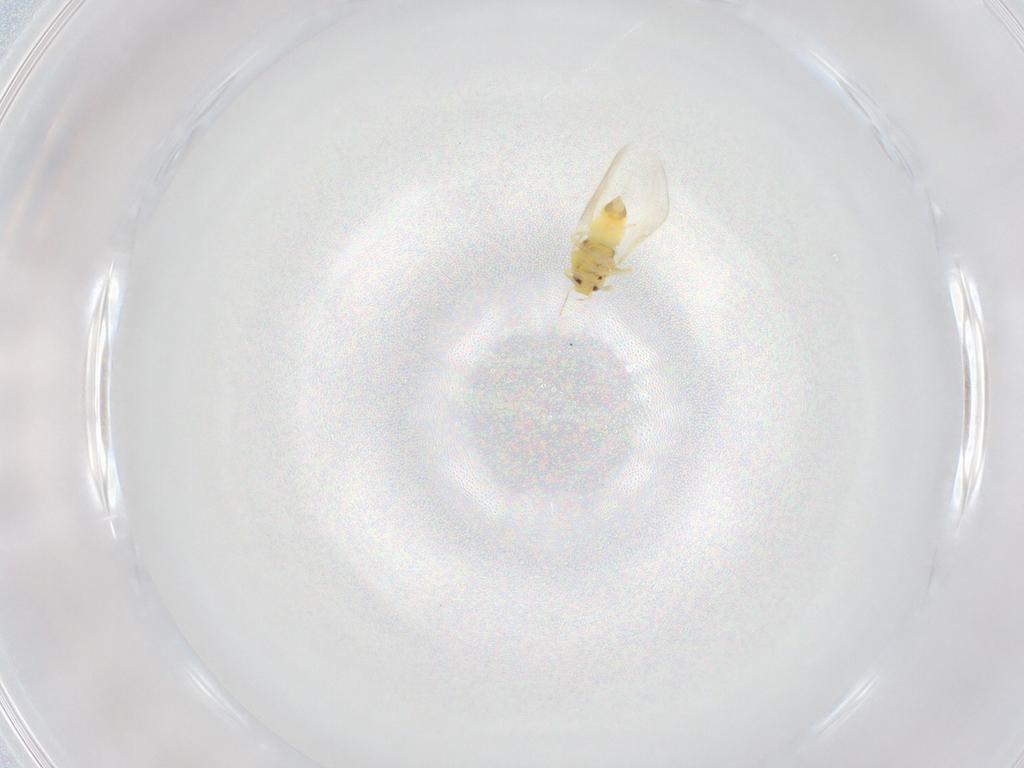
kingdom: Animalia
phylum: Arthropoda
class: Insecta
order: Hemiptera
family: Aleyrodidae
